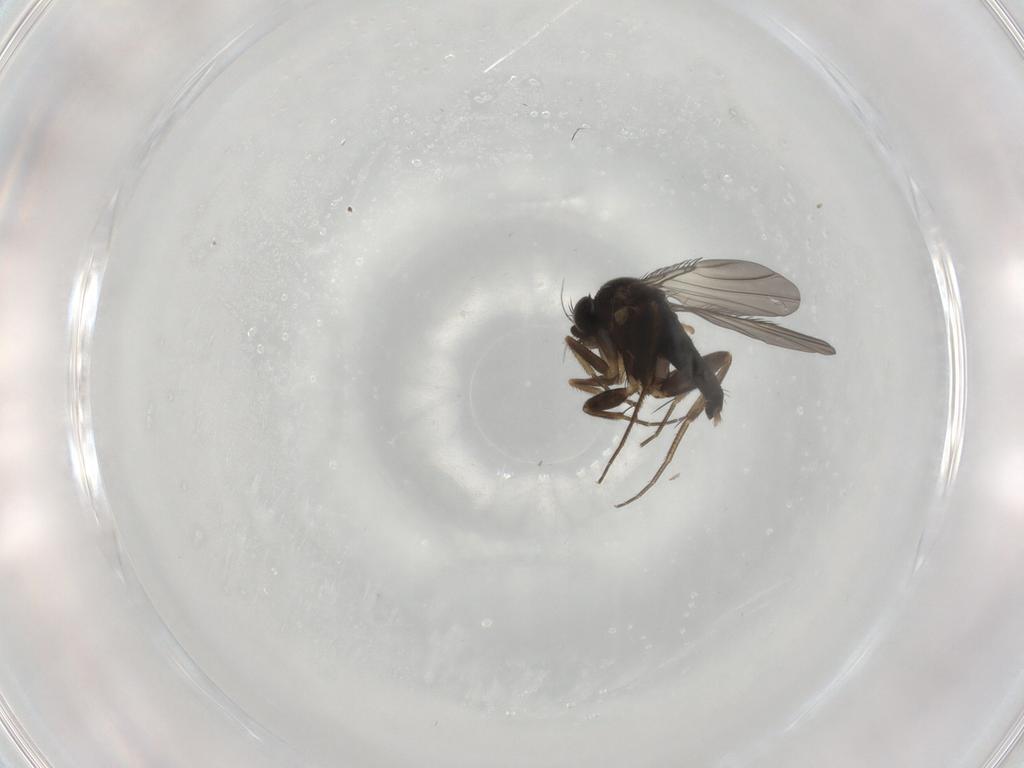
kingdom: Animalia
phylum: Arthropoda
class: Insecta
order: Diptera
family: Phoridae
